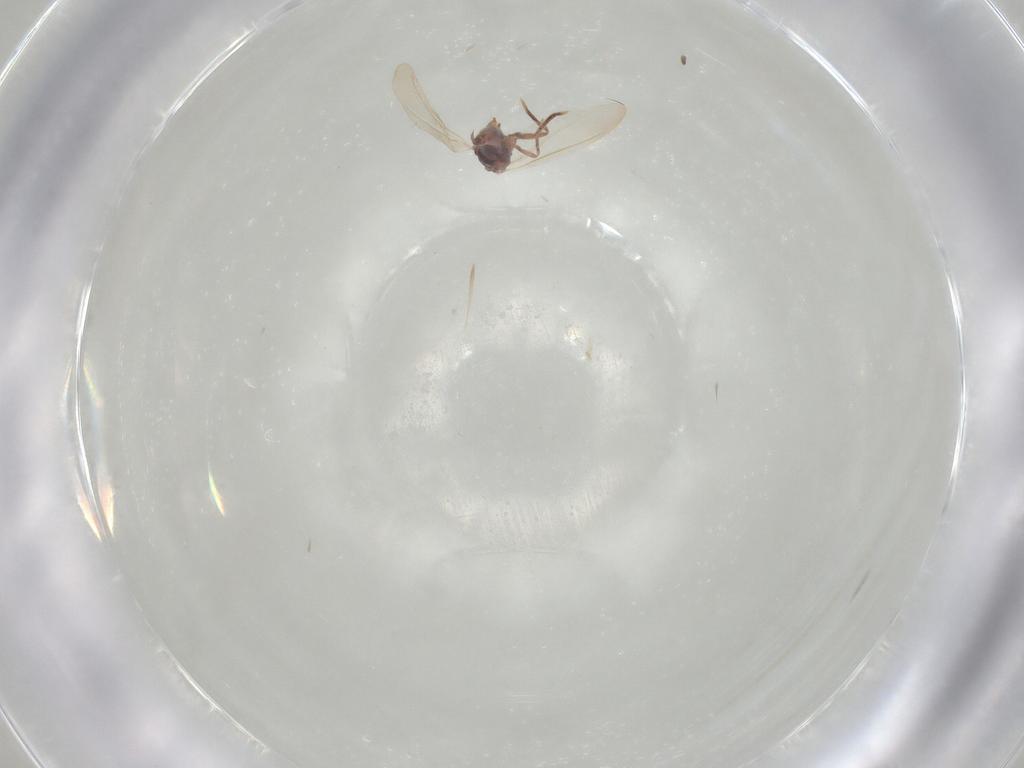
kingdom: Animalia
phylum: Arthropoda
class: Insecta
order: Hemiptera
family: Coccoidea_incertae_sedis
